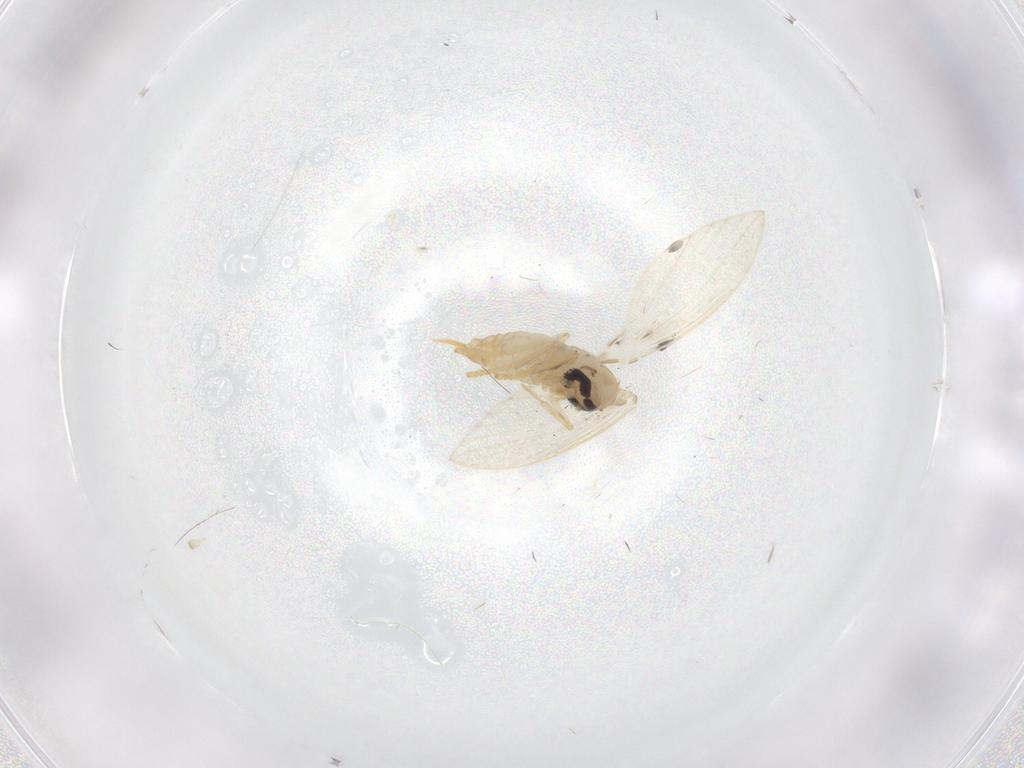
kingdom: Animalia
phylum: Arthropoda
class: Insecta
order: Diptera
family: Psychodidae
